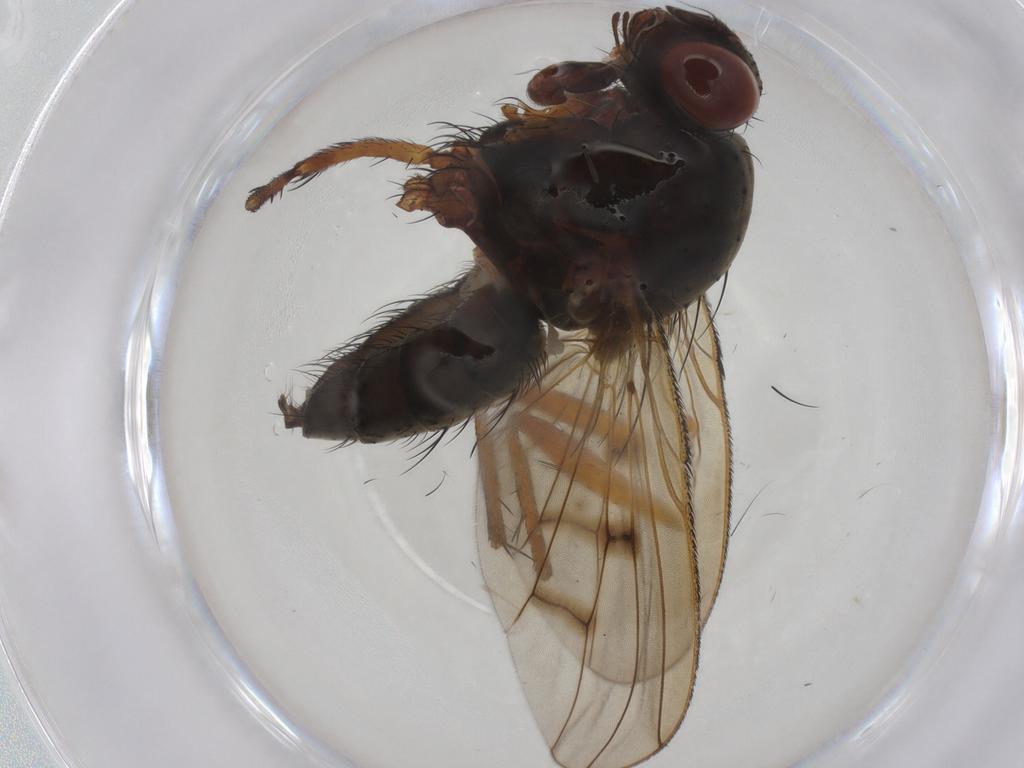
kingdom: Animalia
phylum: Arthropoda
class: Insecta
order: Diptera
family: Anthomyiidae
